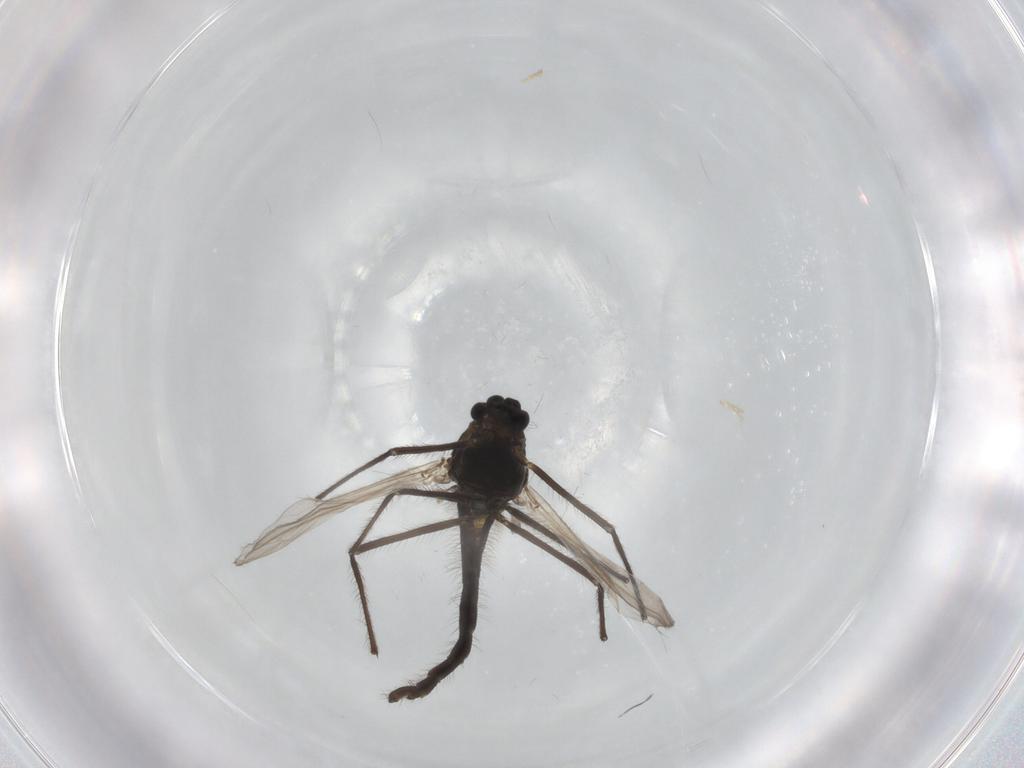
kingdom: Animalia
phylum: Arthropoda
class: Insecta
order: Diptera
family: Chironomidae
